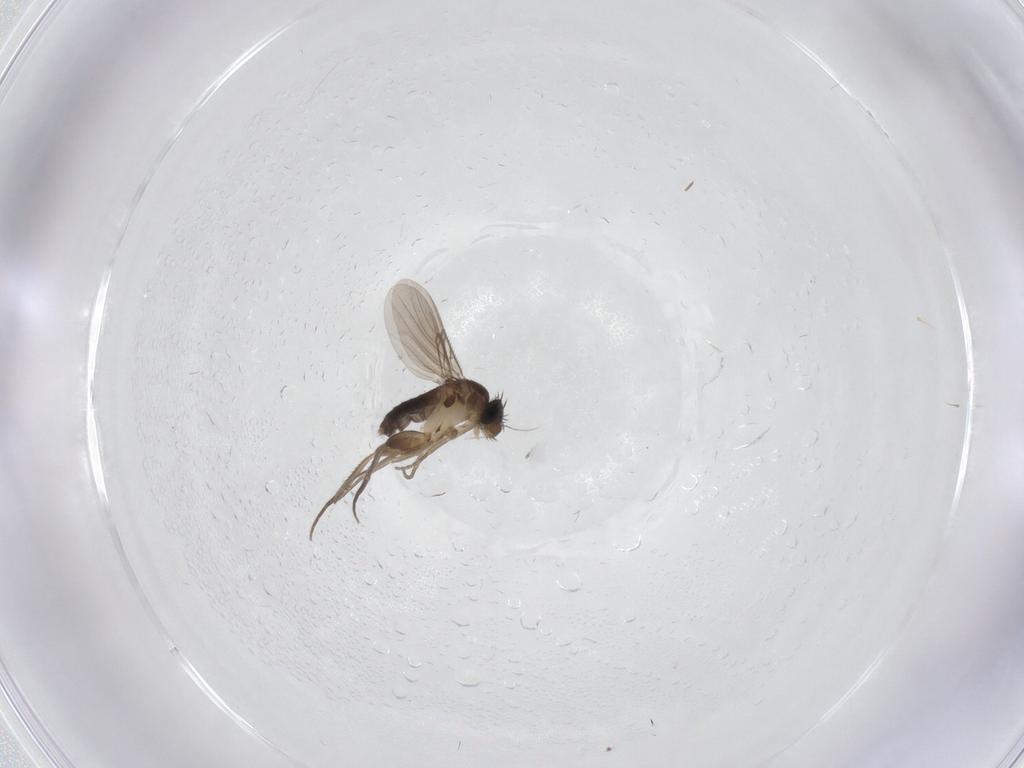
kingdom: Animalia
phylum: Arthropoda
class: Insecta
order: Diptera
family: Phoridae
